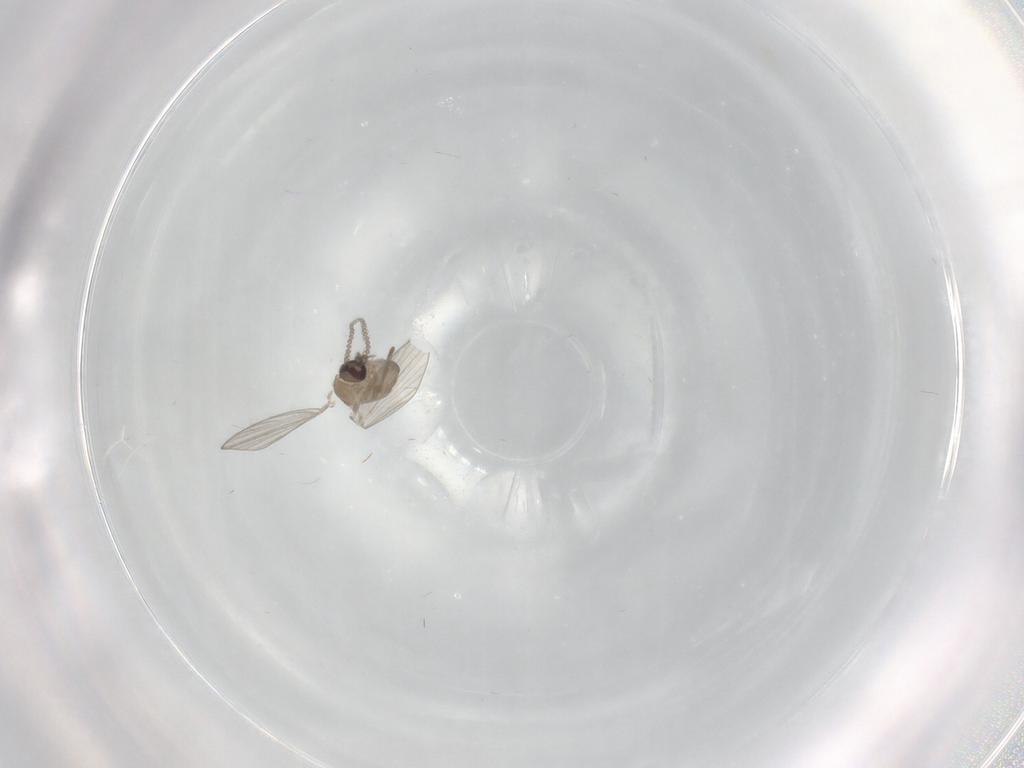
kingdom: Animalia
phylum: Arthropoda
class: Insecta
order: Diptera
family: Psychodidae
